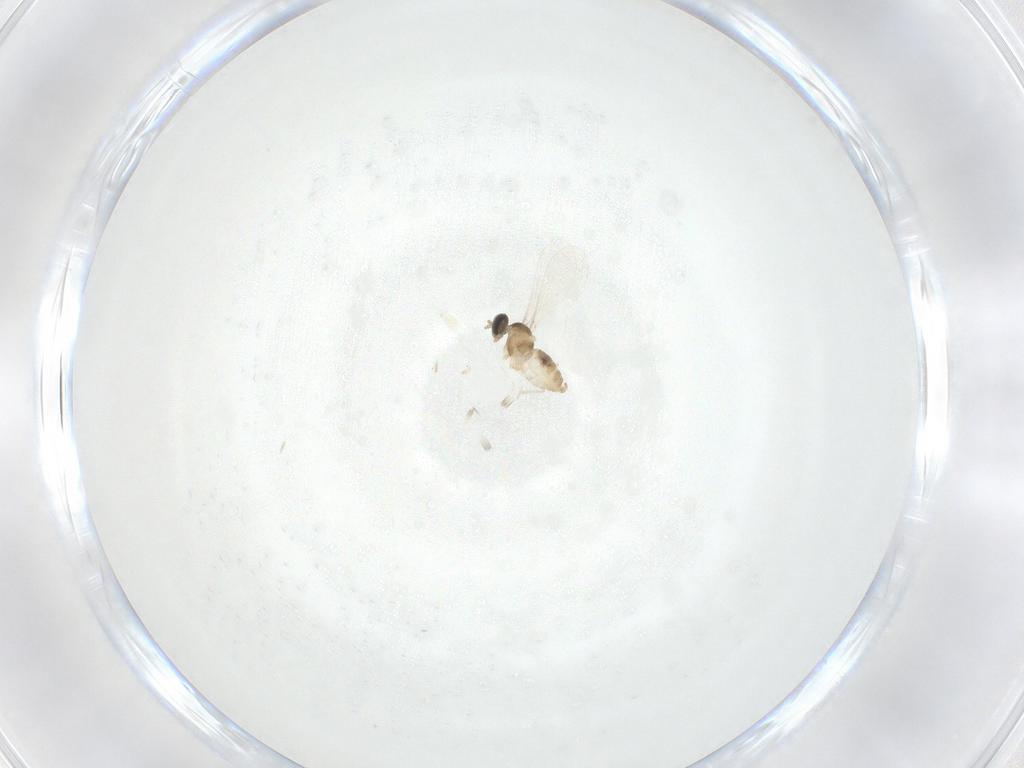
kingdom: Animalia
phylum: Arthropoda
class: Insecta
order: Diptera
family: Cecidomyiidae
